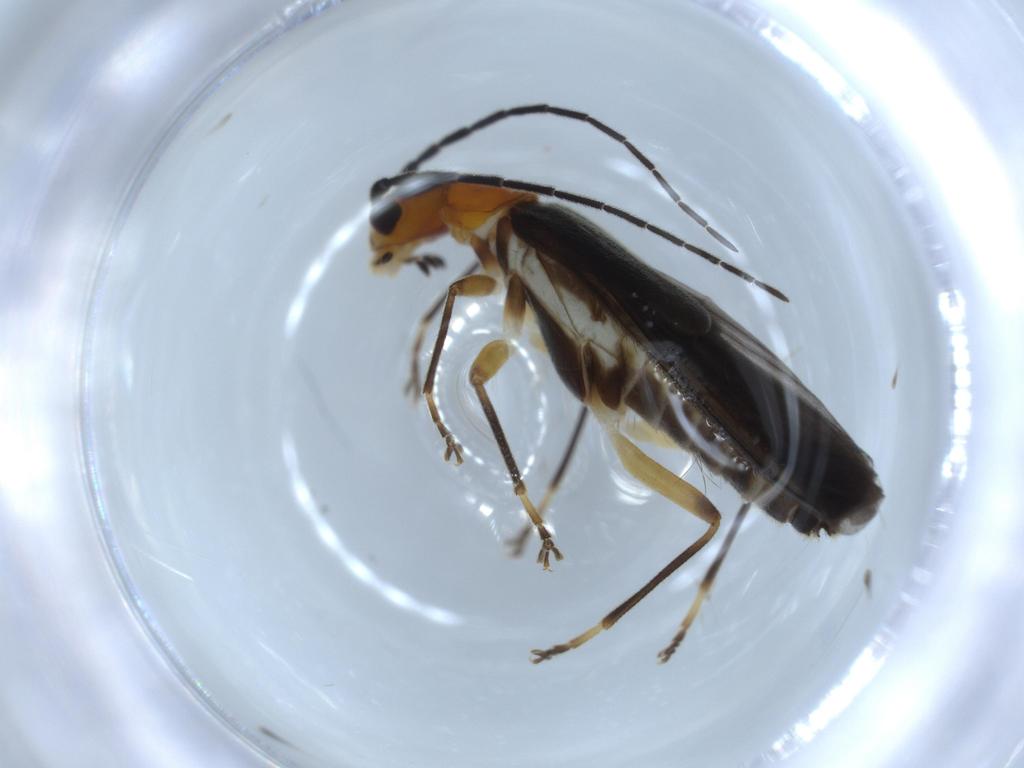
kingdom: Animalia
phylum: Arthropoda
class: Insecta
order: Coleoptera
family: Cantharidae
